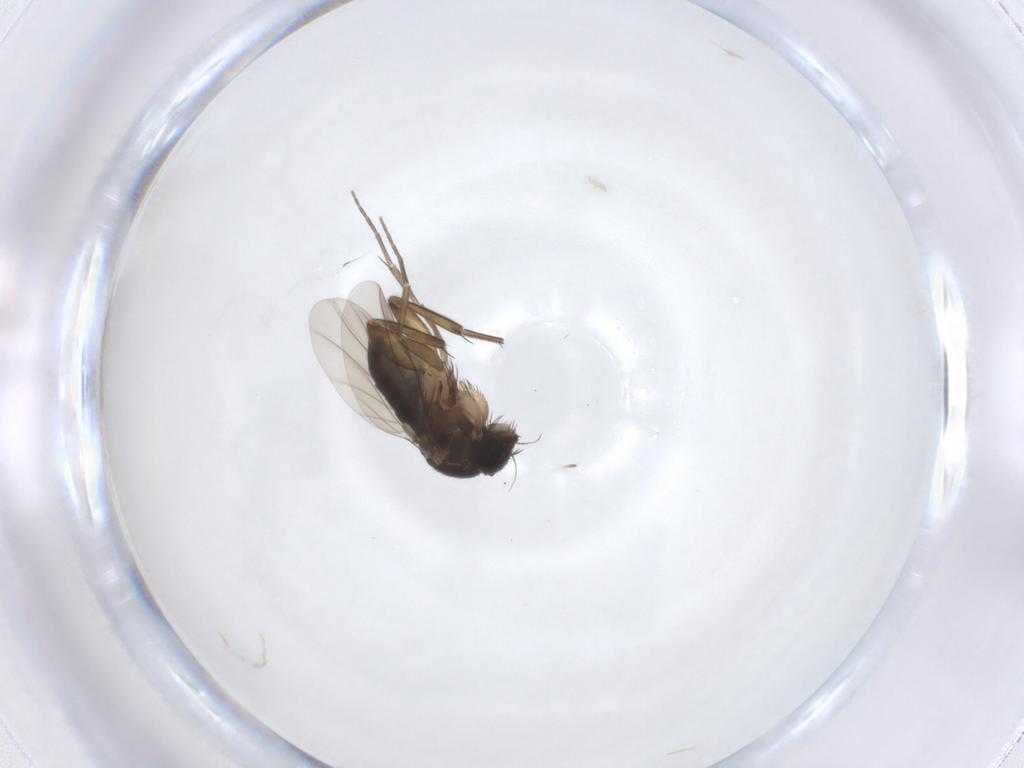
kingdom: Animalia
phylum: Arthropoda
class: Insecta
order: Diptera
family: Phoridae
